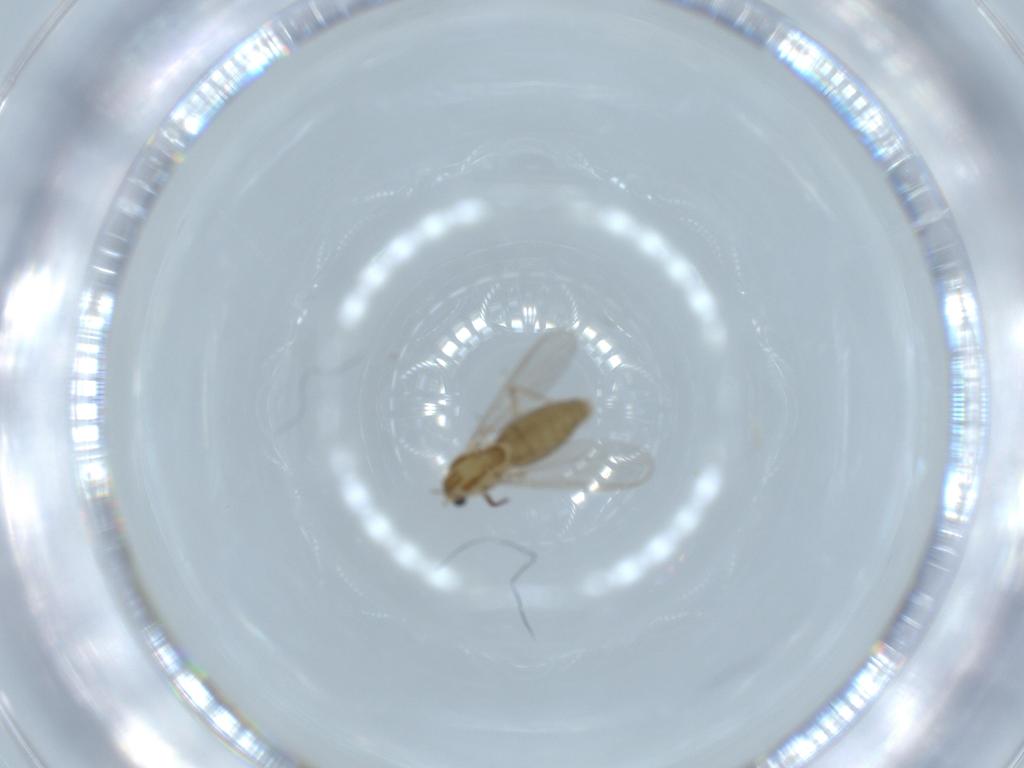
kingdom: Animalia
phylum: Arthropoda
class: Insecta
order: Diptera
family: Chironomidae
